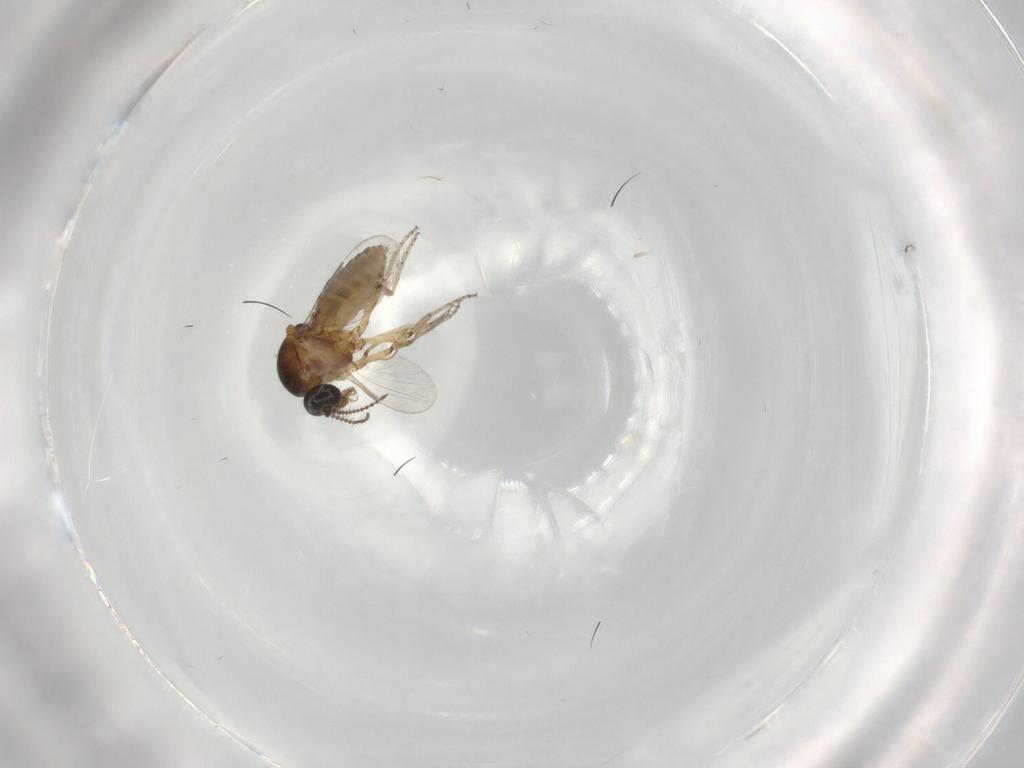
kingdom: Animalia
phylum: Arthropoda
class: Insecta
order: Diptera
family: Ceratopogonidae
